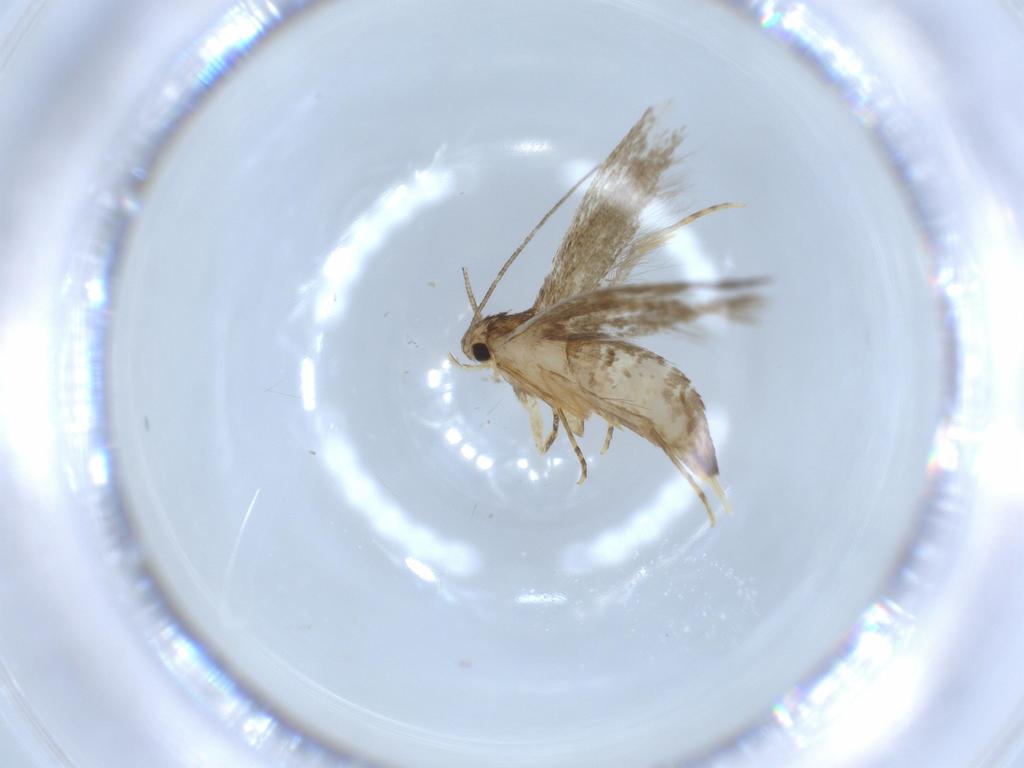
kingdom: Animalia
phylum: Arthropoda
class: Insecta
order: Lepidoptera
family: Tineidae
